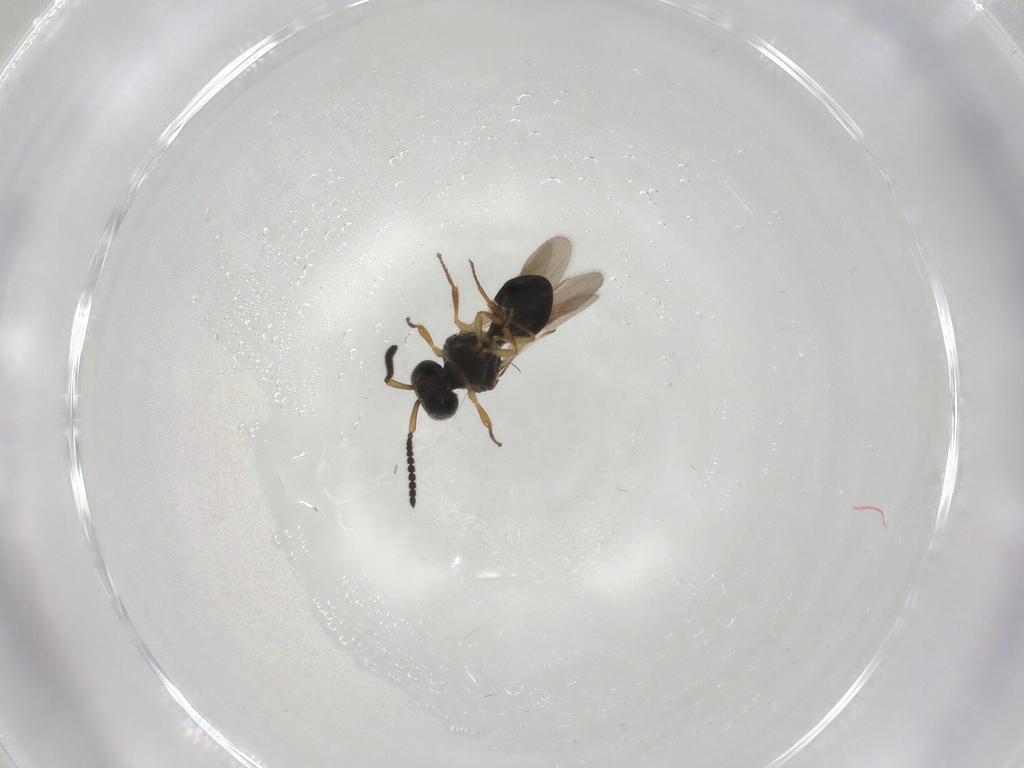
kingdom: Animalia
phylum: Arthropoda
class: Insecta
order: Hymenoptera
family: Scelionidae
